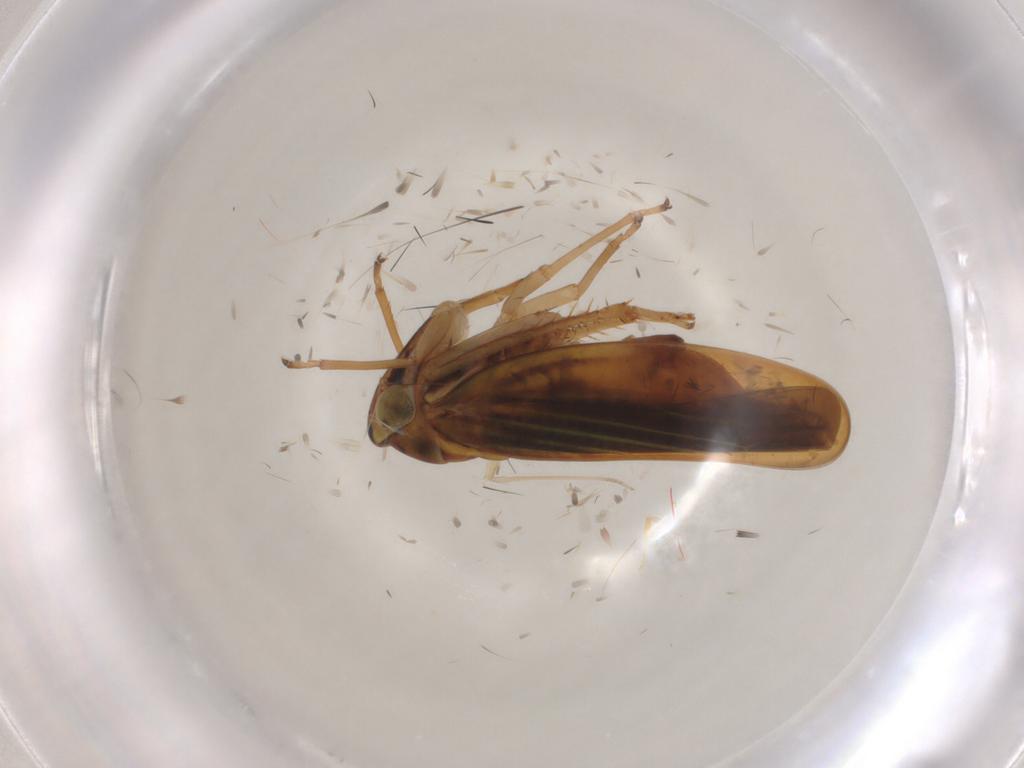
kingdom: Animalia
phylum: Arthropoda
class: Insecta
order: Hemiptera
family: Cicadellidae
